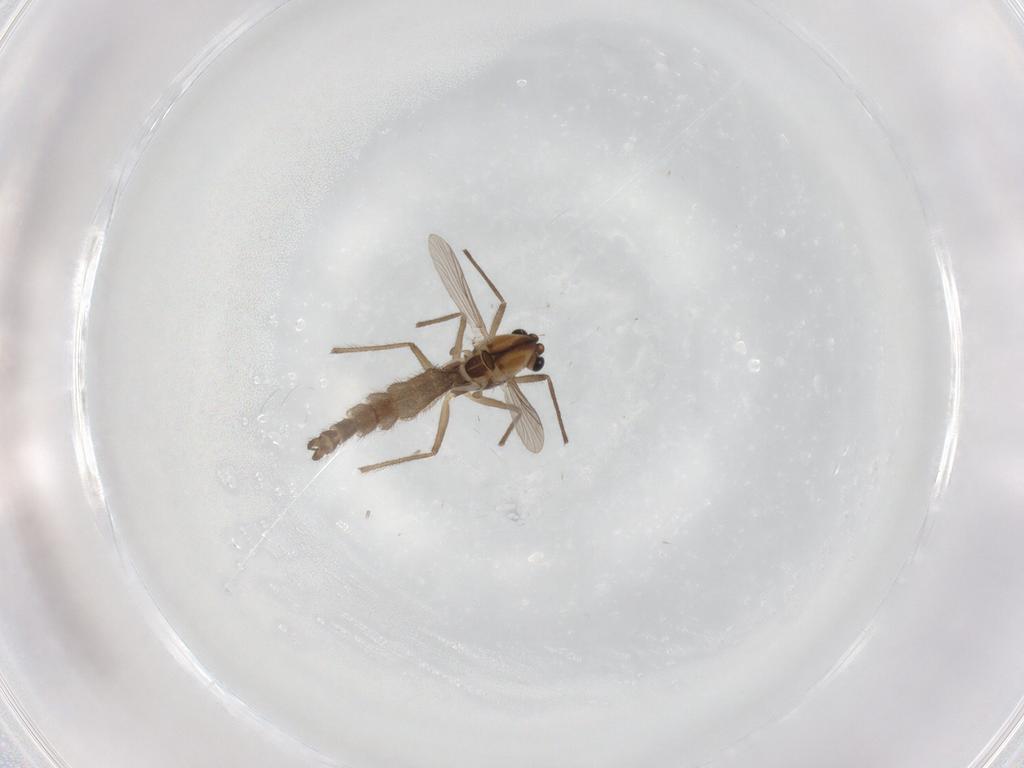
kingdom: Animalia
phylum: Arthropoda
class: Insecta
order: Diptera
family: Chironomidae
